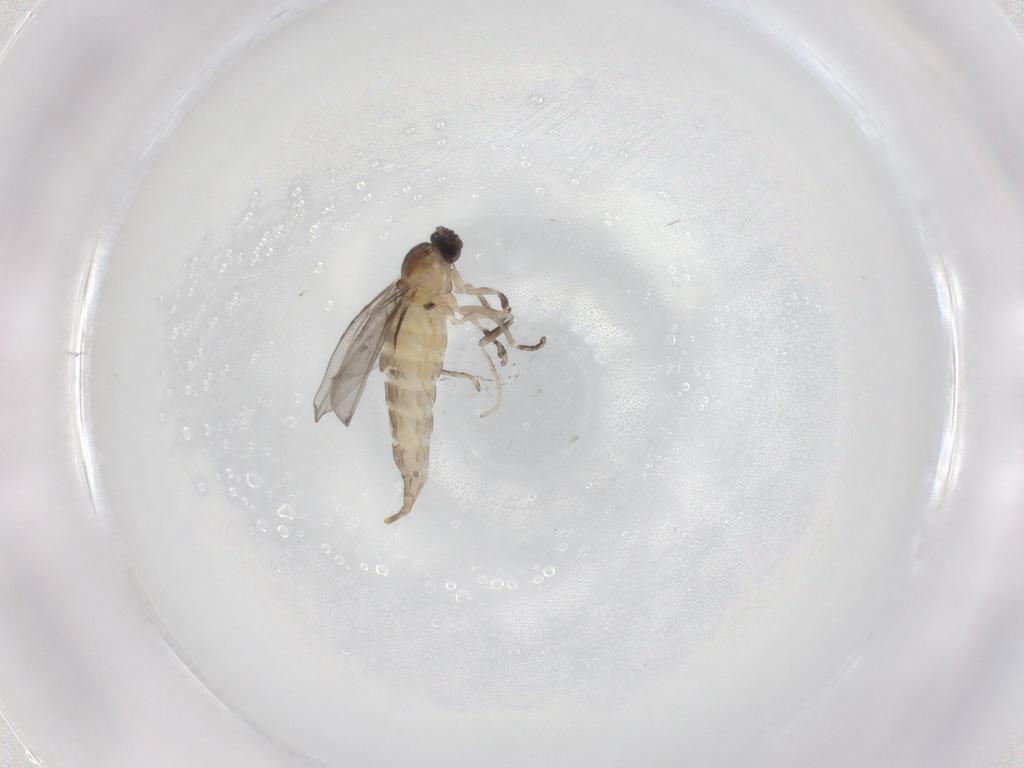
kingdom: Animalia
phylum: Arthropoda
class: Insecta
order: Diptera
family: Cecidomyiidae
